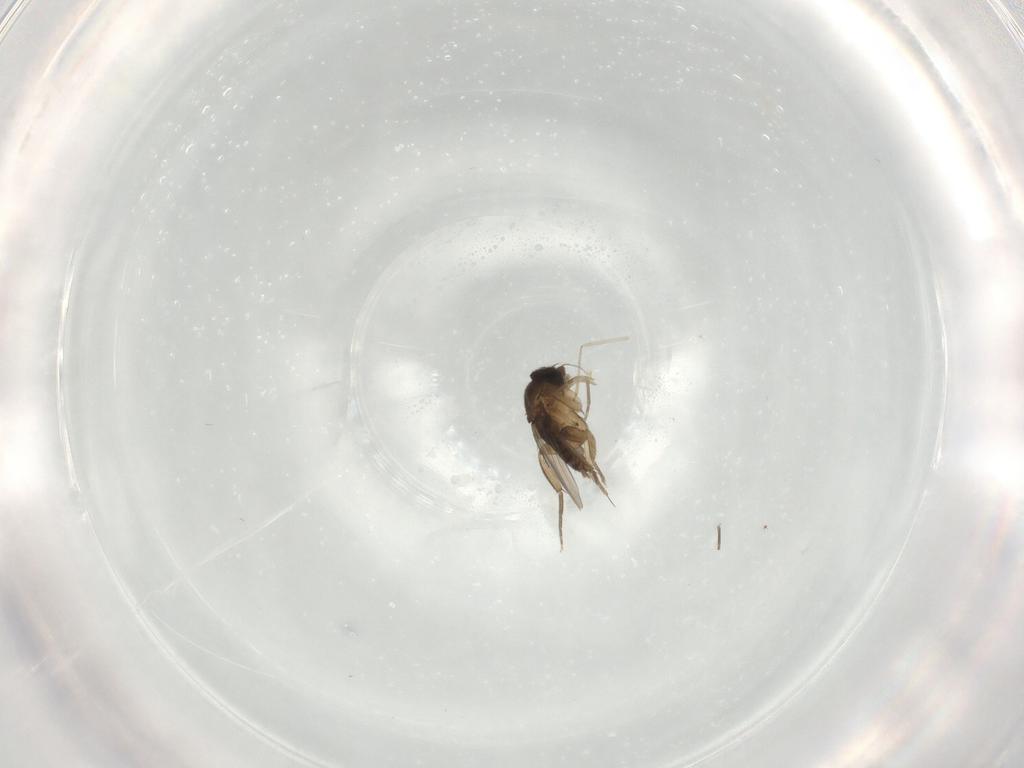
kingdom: Animalia
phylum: Arthropoda
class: Insecta
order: Diptera
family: Phoridae
